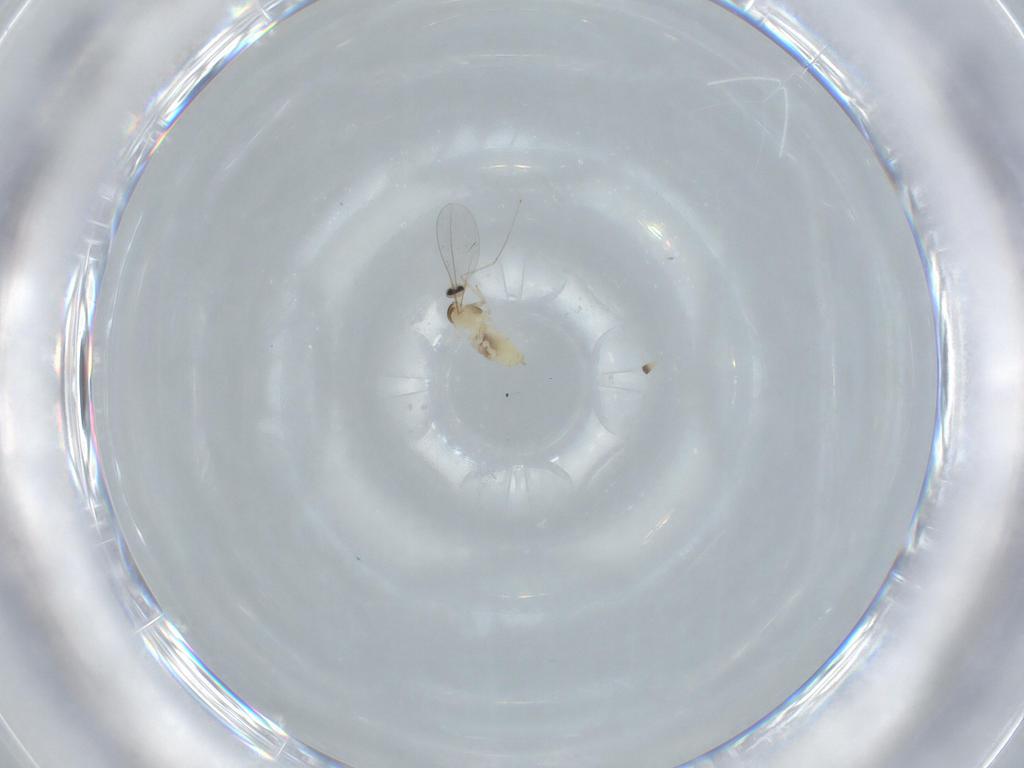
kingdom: Animalia
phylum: Arthropoda
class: Insecta
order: Diptera
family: Cecidomyiidae
